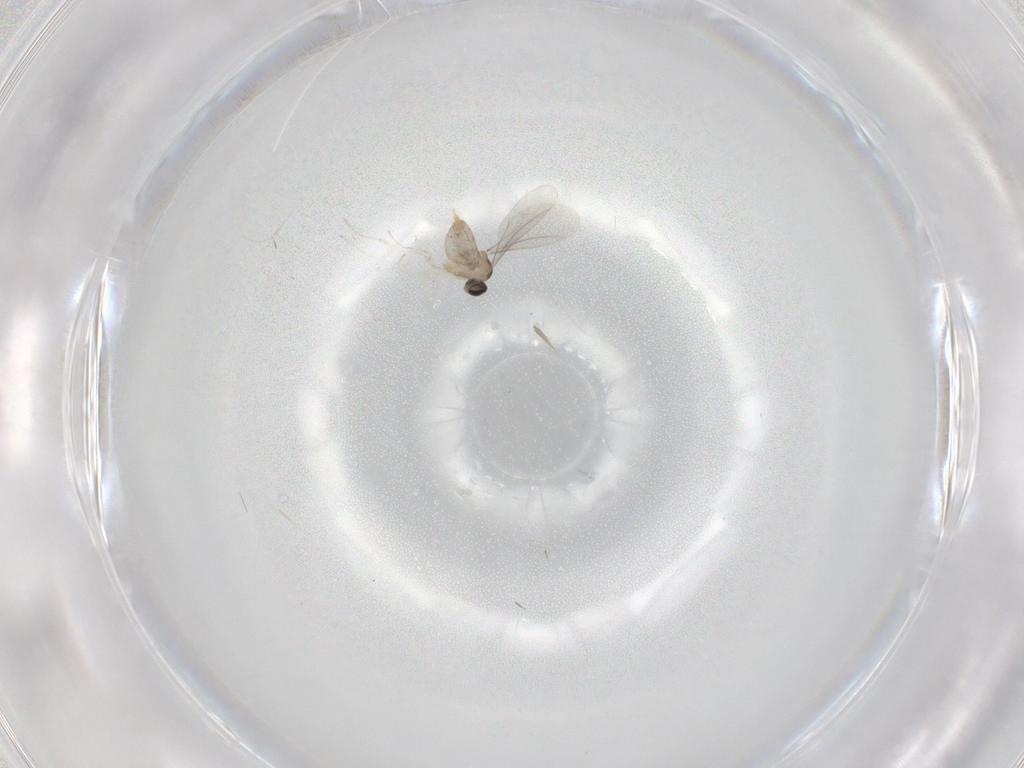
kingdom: Animalia
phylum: Arthropoda
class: Insecta
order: Diptera
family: Cecidomyiidae
